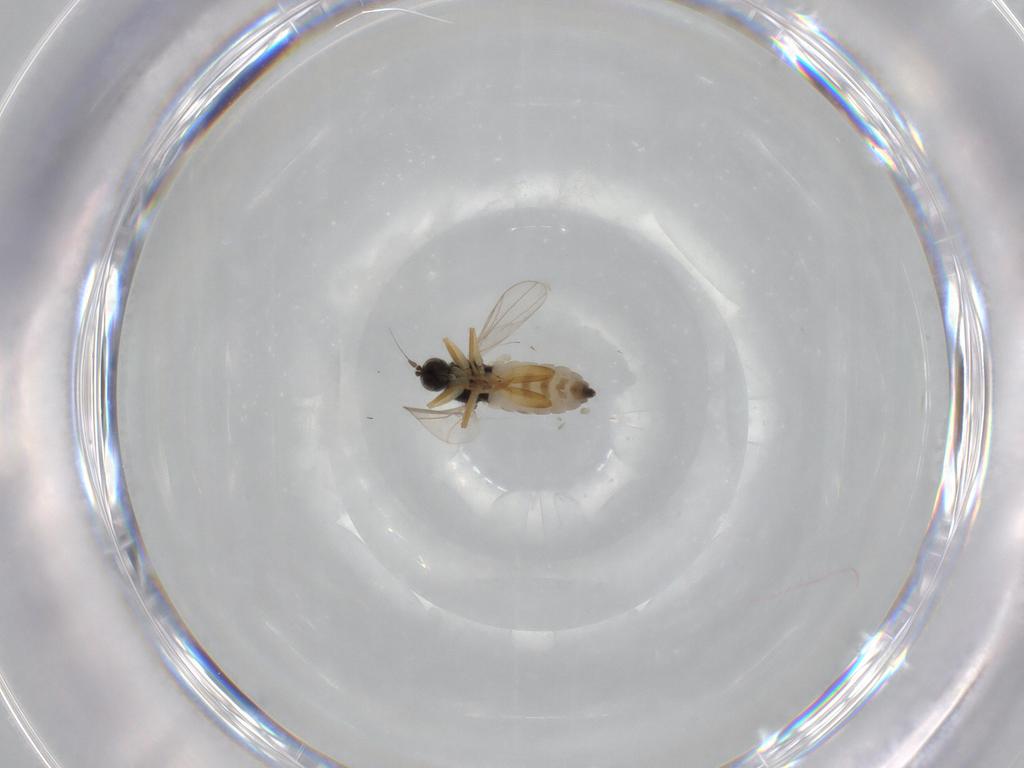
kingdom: Animalia
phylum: Arthropoda
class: Insecta
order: Diptera
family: Hybotidae
